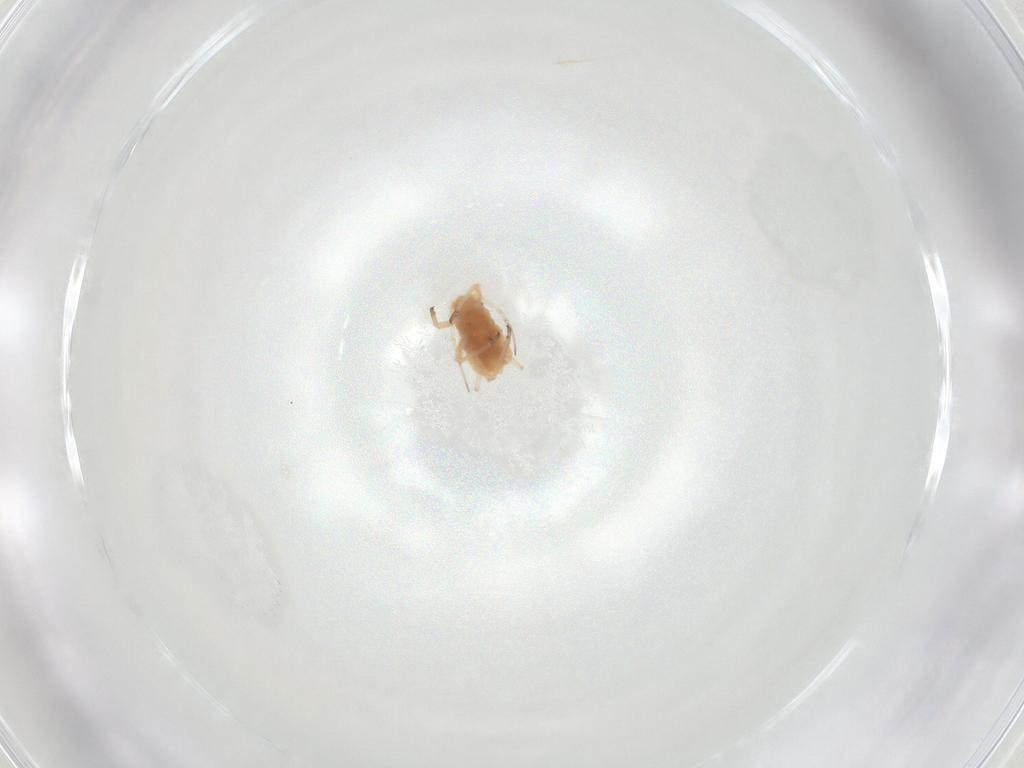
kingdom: Animalia
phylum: Arthropoda
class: Insecta
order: Hemiptera
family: Aphididae
